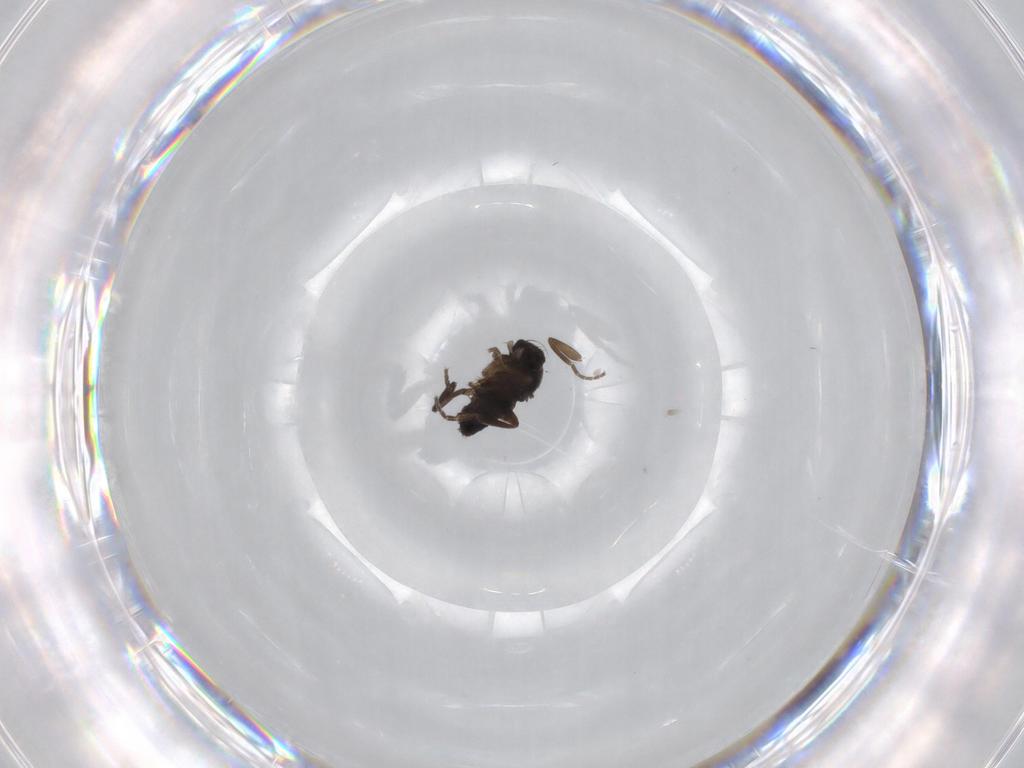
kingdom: Animalia
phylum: Arthropoda
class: Insecta
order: Diptera
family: Phoridae
